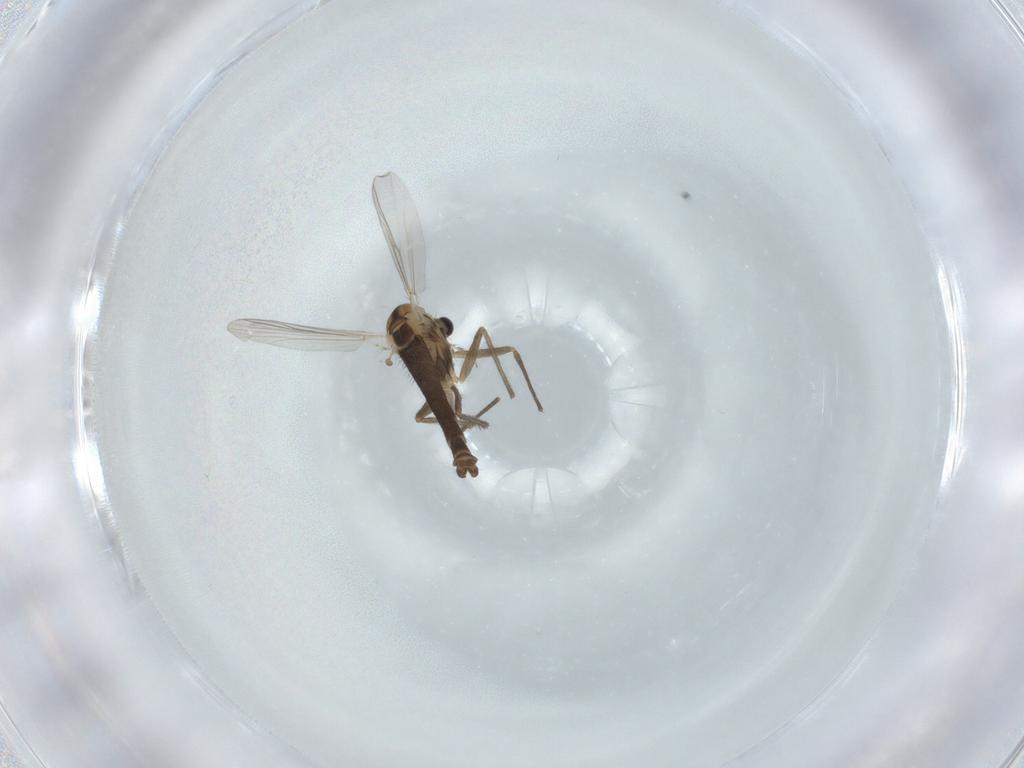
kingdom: Animalia
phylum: Arthropoda
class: Insecta
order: Diptera
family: Chironomidae
